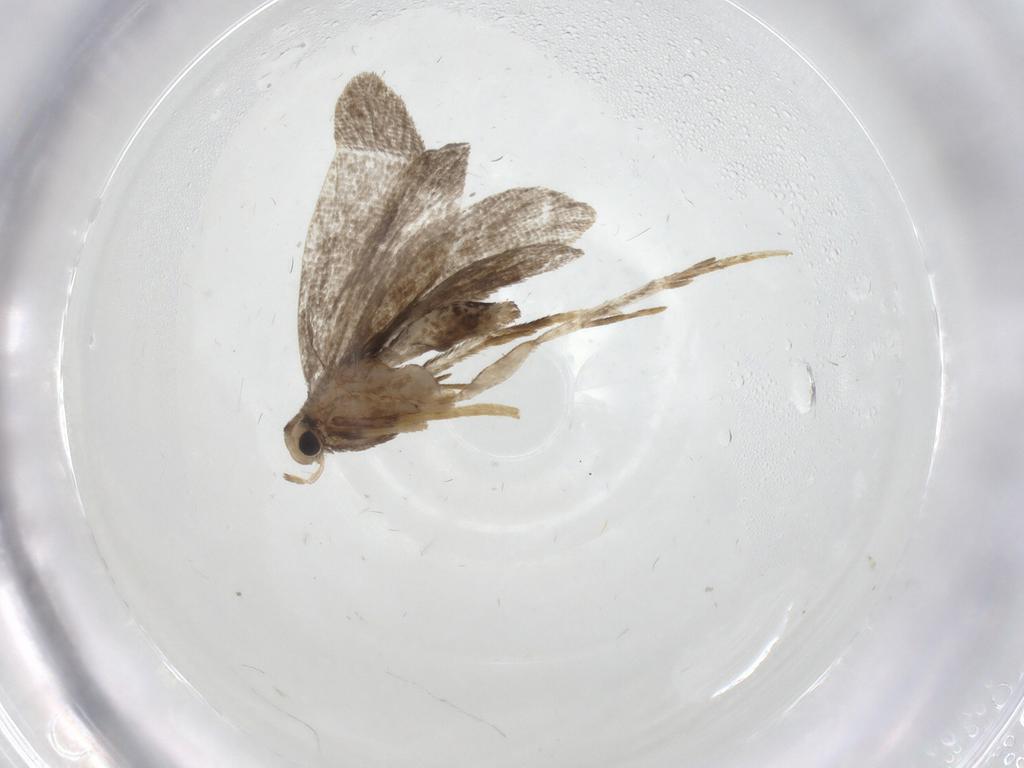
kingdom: Animalia
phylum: Arthropoda
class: Insecta
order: Lepidoptera
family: Psychidae
